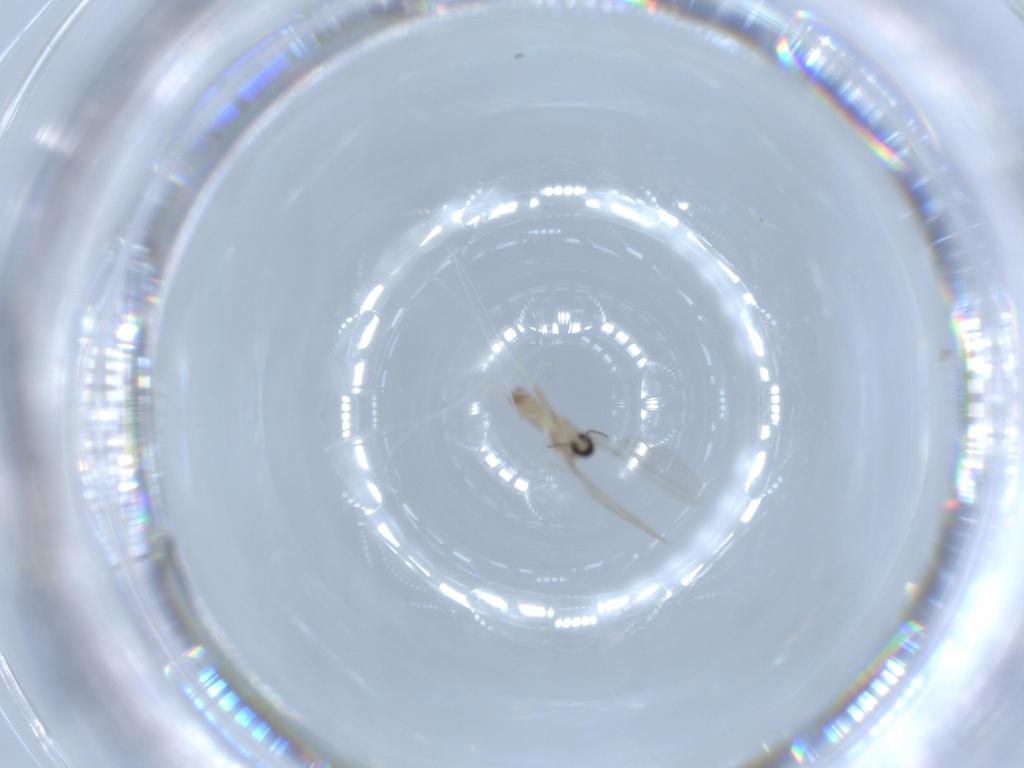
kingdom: Animalia
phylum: Arthropoda
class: Insecta
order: Diptera
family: Cecidomyiidae
